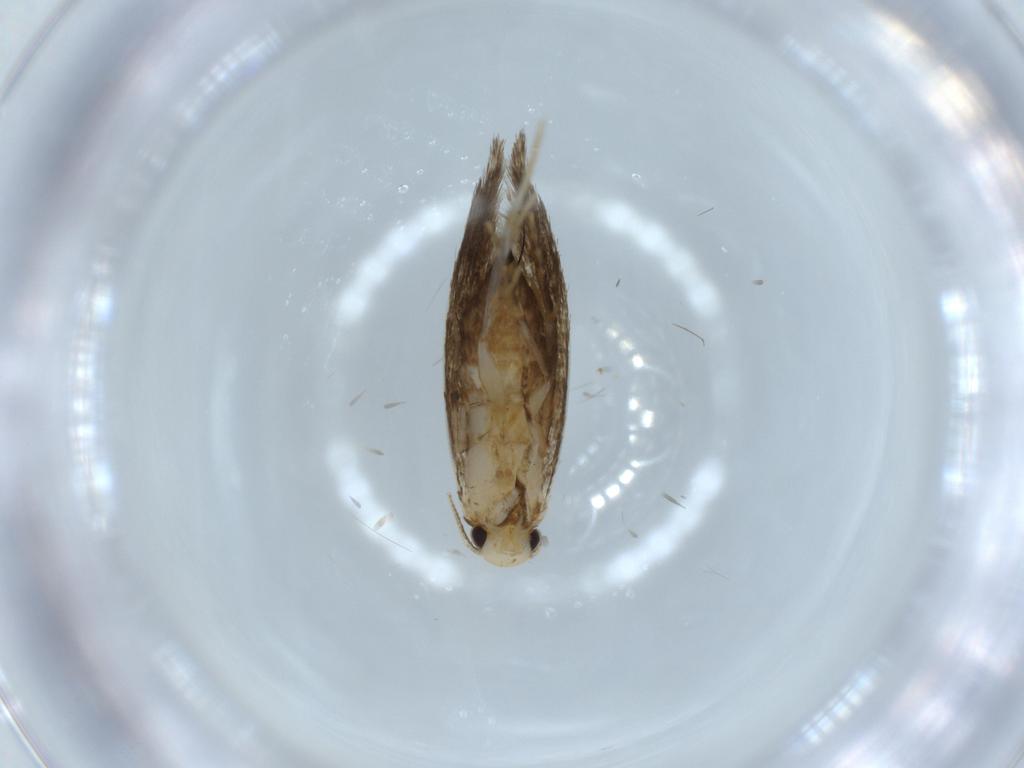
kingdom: Animalia
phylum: Arthropoda
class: Insecta
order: Lepidoptera
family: Tineidae
